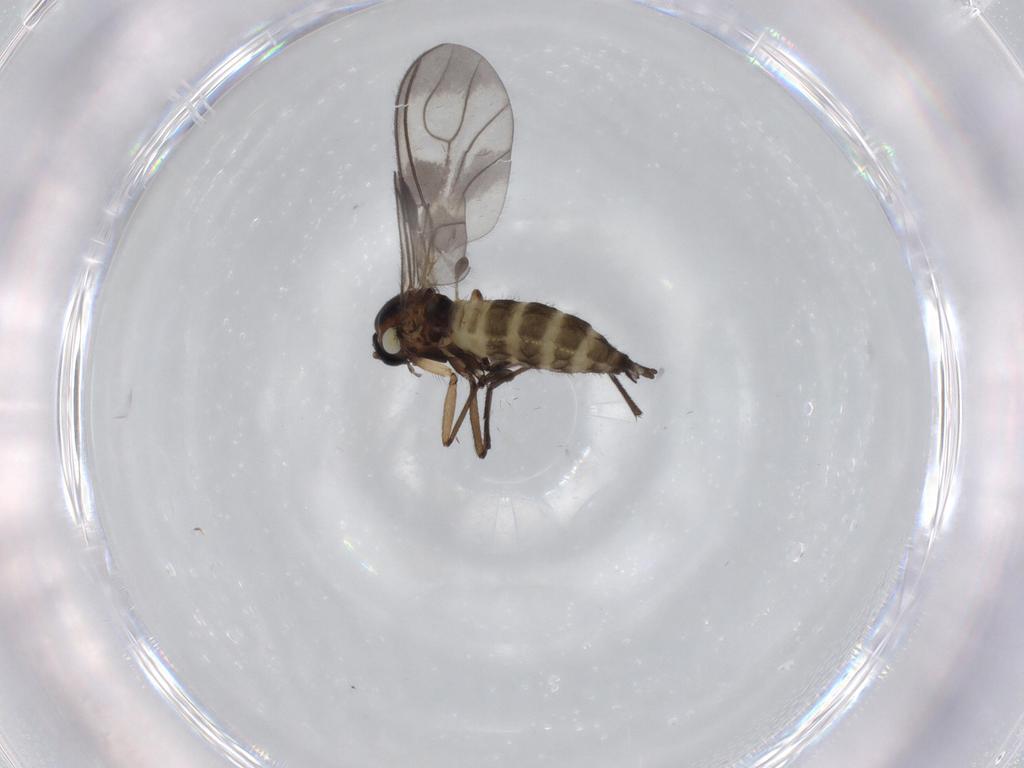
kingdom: Animalia
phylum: Arthropoda
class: Insecta
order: Diptera
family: Sciaridae
